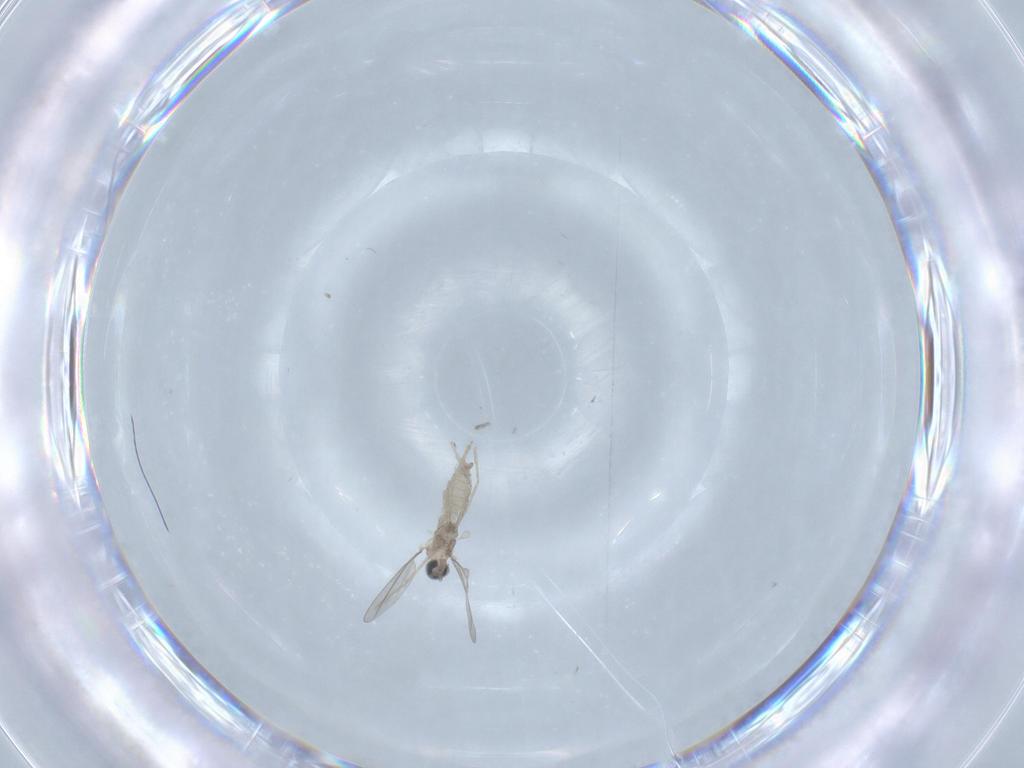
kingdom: Animalia
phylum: Arthropoda
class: Insecta
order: Diptera
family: Cecidomyiidae
